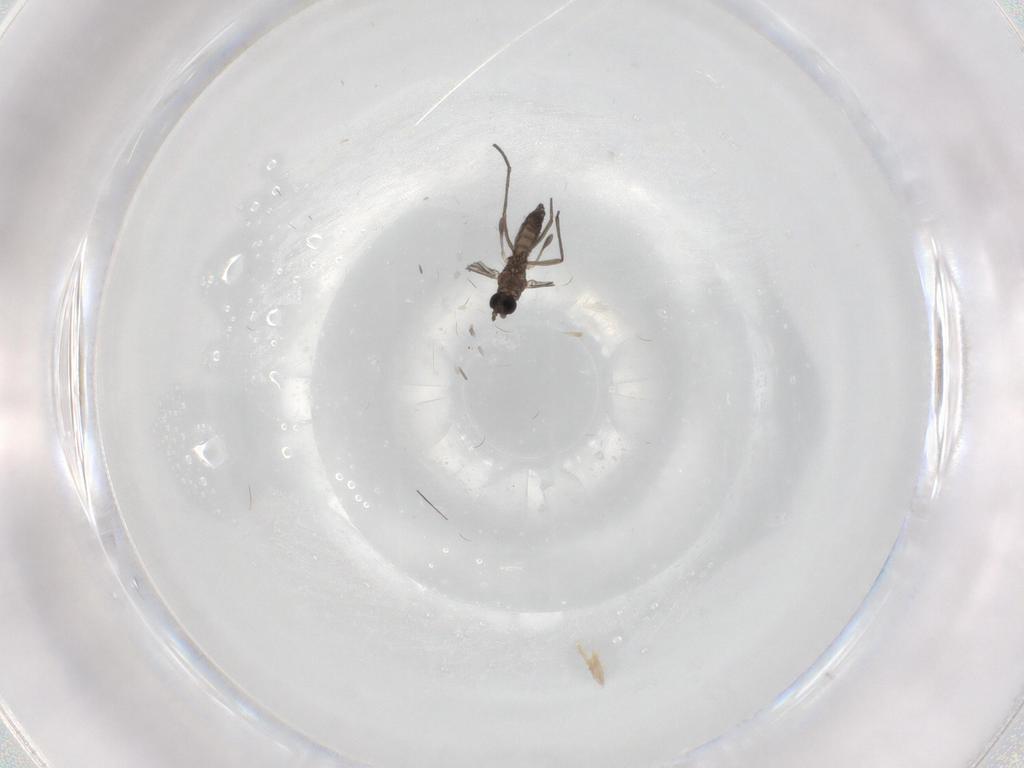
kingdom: Animalia
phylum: Arthropoda
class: Insecta
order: Diptera
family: Sciaridae
